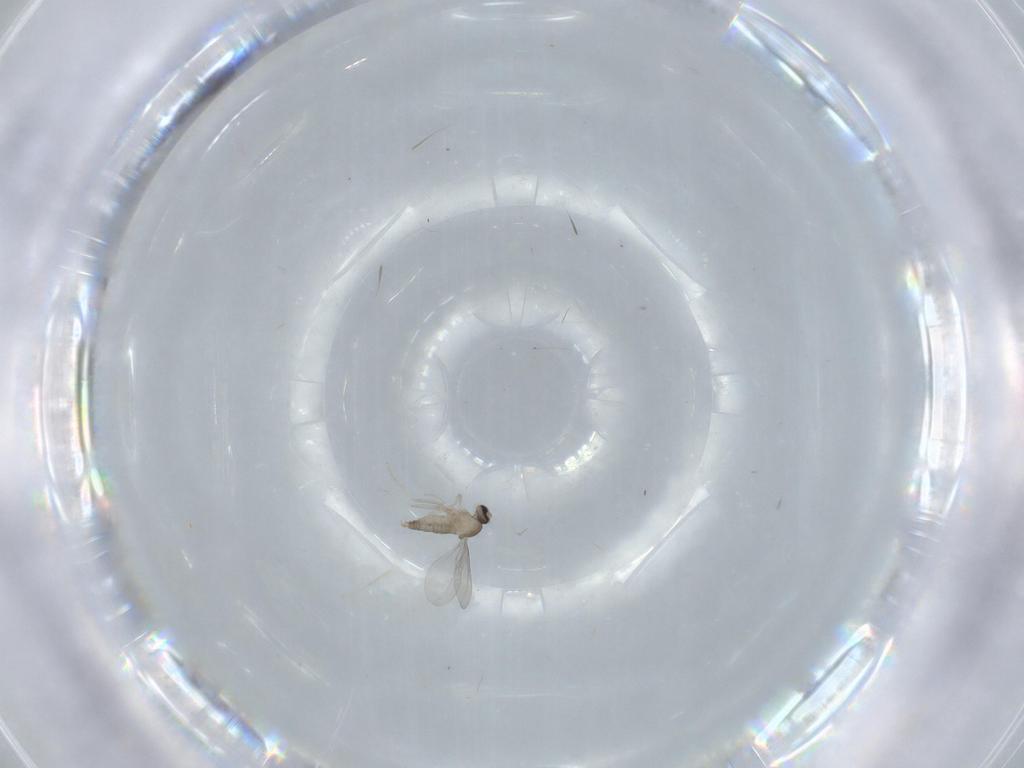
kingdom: Animalia
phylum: Arthropoda
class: Insecta
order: Diptera
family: Cecidomyiidae
